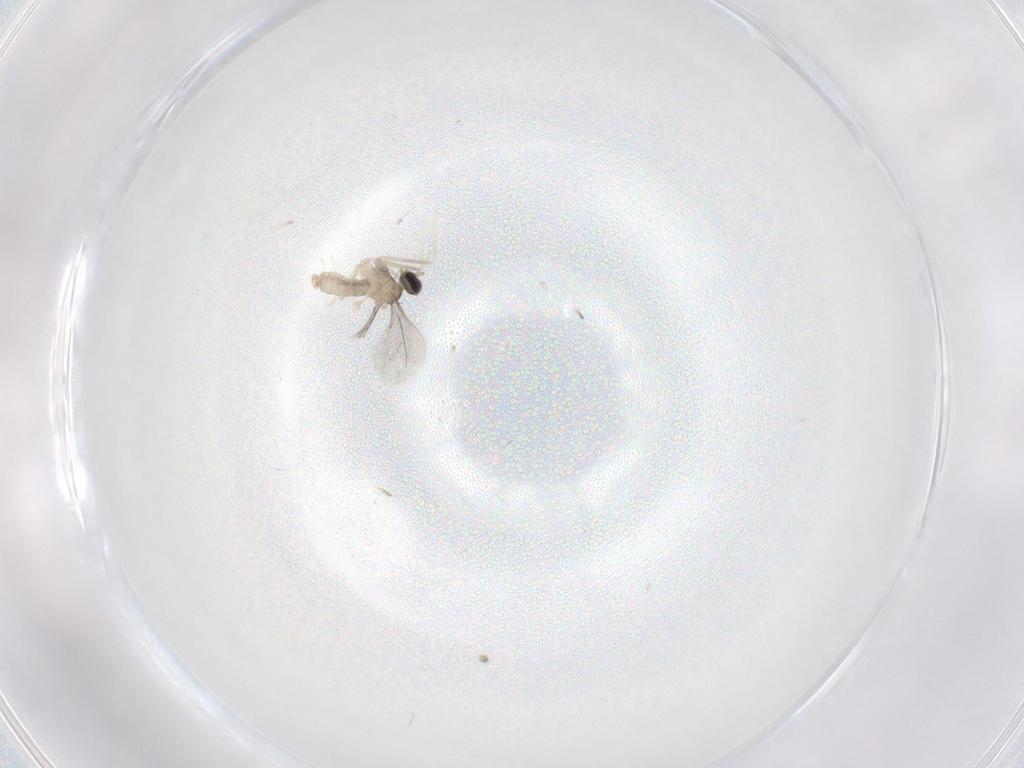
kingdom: Animalia
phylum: Arthropoda
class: Insecta
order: Diptera
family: Cecidomyiidae
